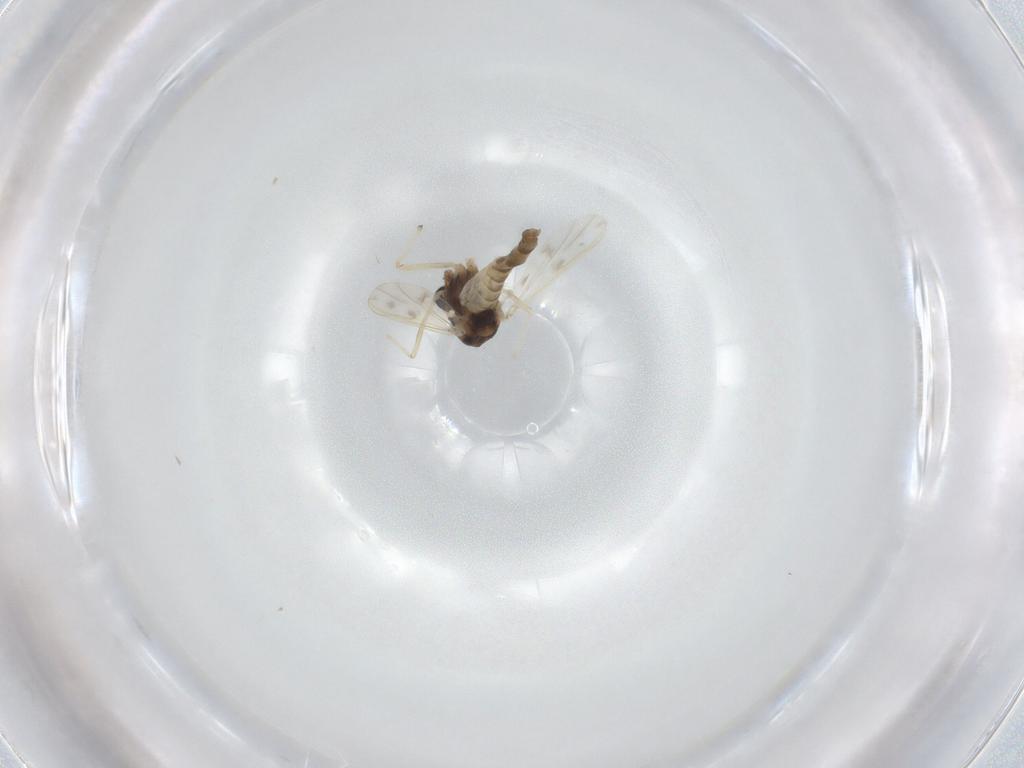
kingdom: Animalia
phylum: Arthropoda
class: Insecta
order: Diptera
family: Chironomidae
